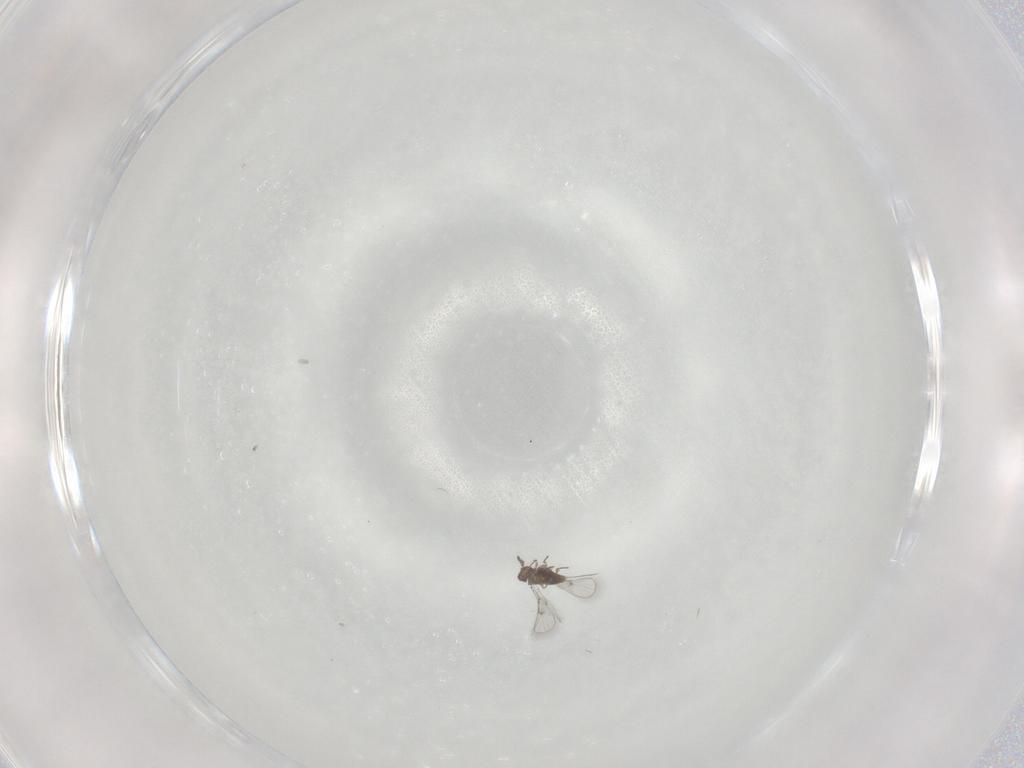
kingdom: Animalia
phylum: Arthropoda
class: Insecta
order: Hymenoptera
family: Trichogrammatidae
